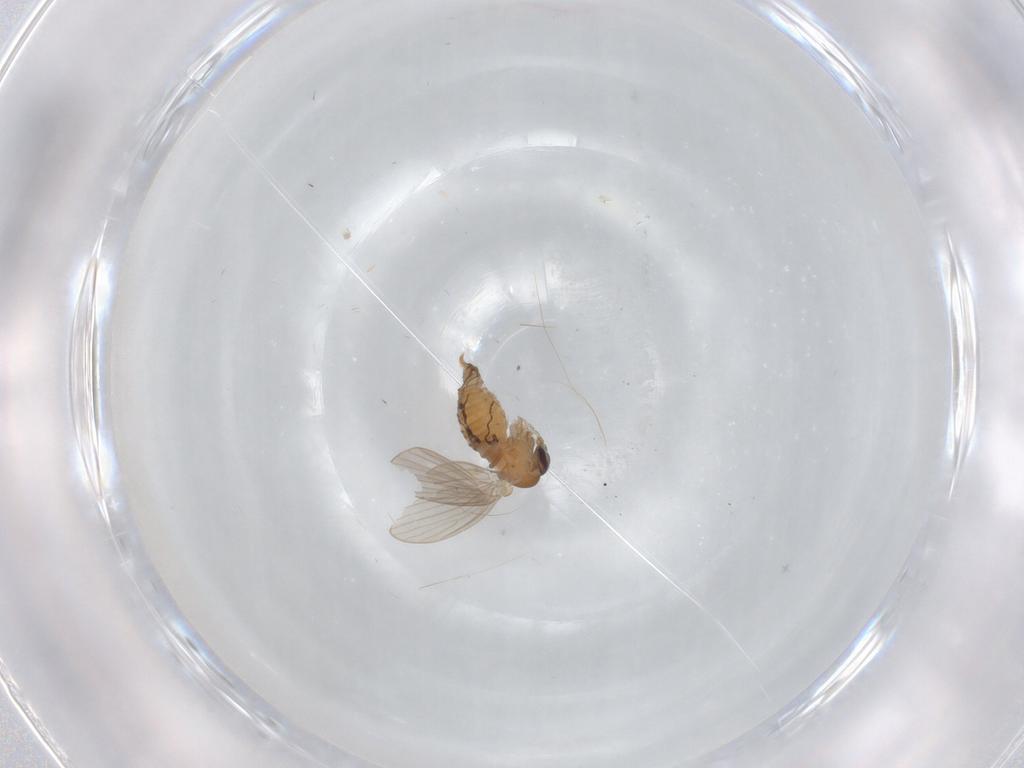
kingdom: Animalia
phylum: Arthropoda
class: Insecta
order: Diptera
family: Psychodidae
